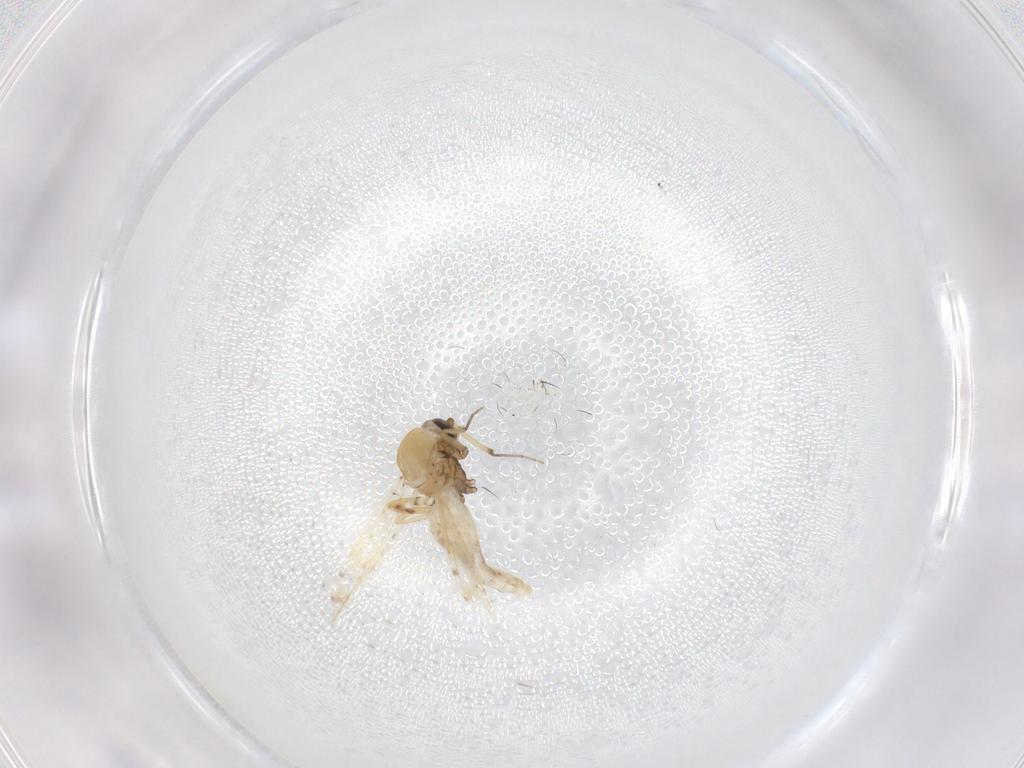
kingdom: Animalia
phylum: Arthropoda
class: Insecta
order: Diptera
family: Ceratopogonidae
